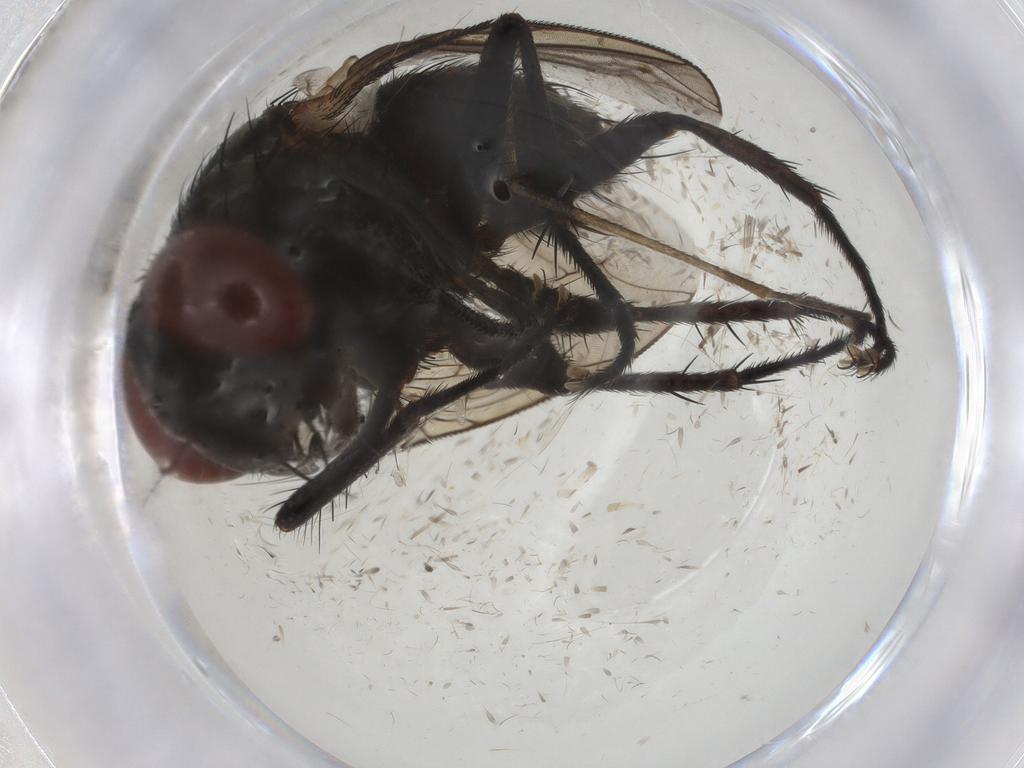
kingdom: Animalia
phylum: Arthropoda
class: Insecta
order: Diptera
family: Sarcophagidae
